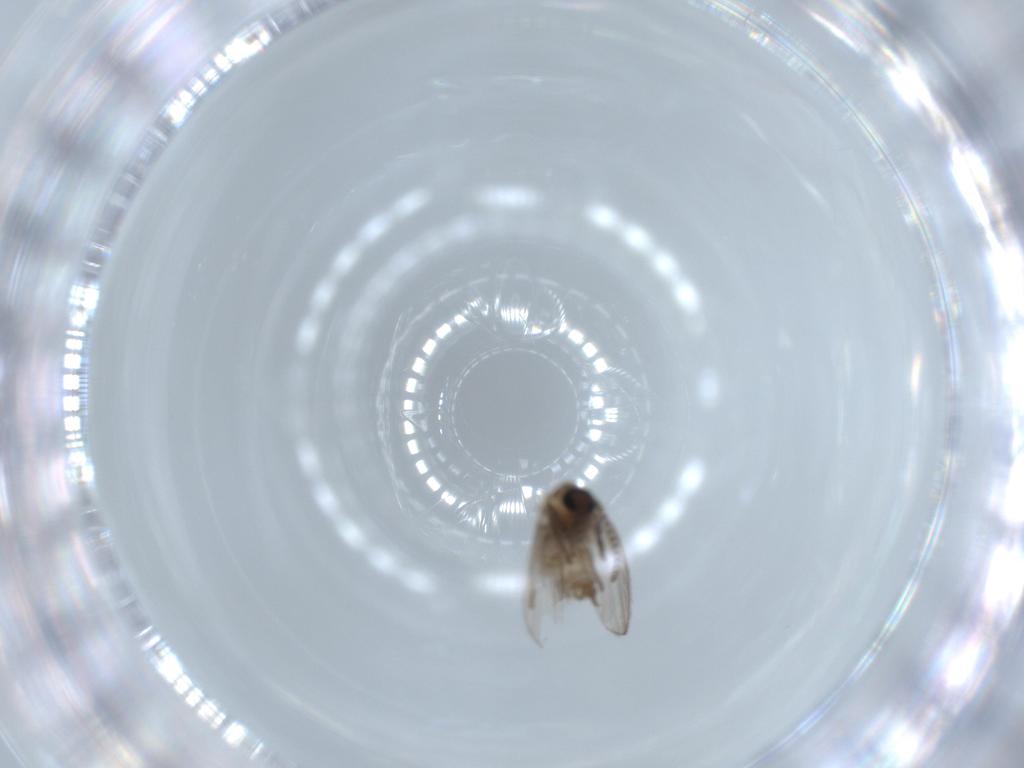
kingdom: Animalia
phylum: Arthropoda
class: Insecta
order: Diptera
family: Psychodidae
